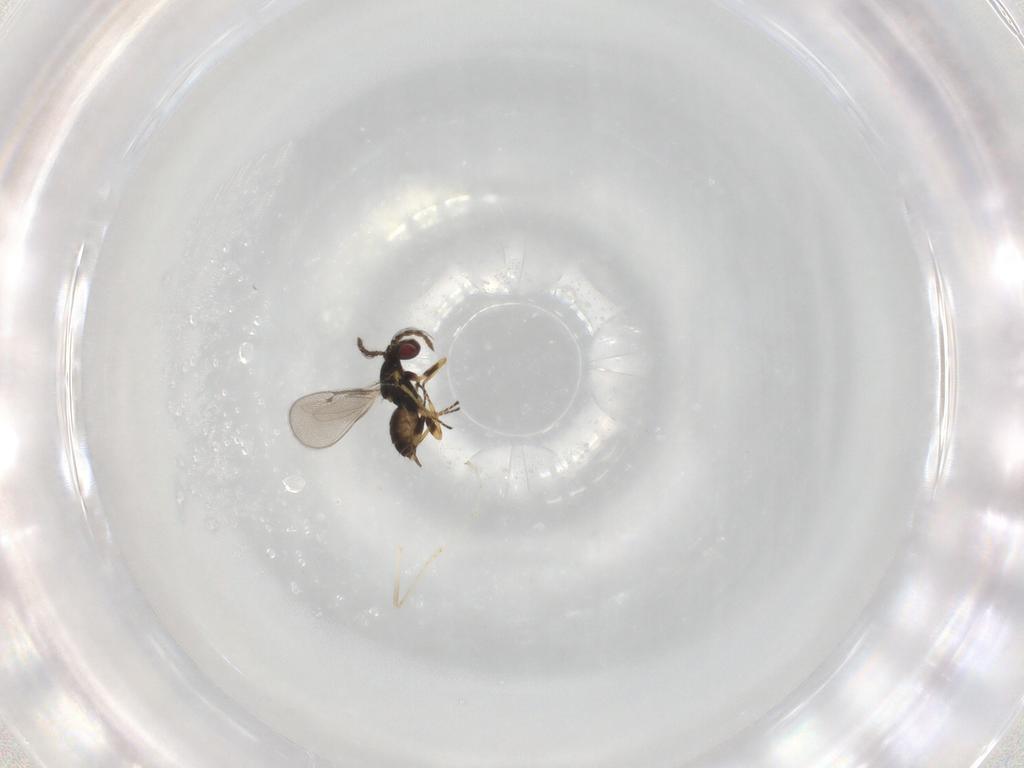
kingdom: Animalia
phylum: Arthropoda
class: Insecta
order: Hymenoptera
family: Eulophidae
